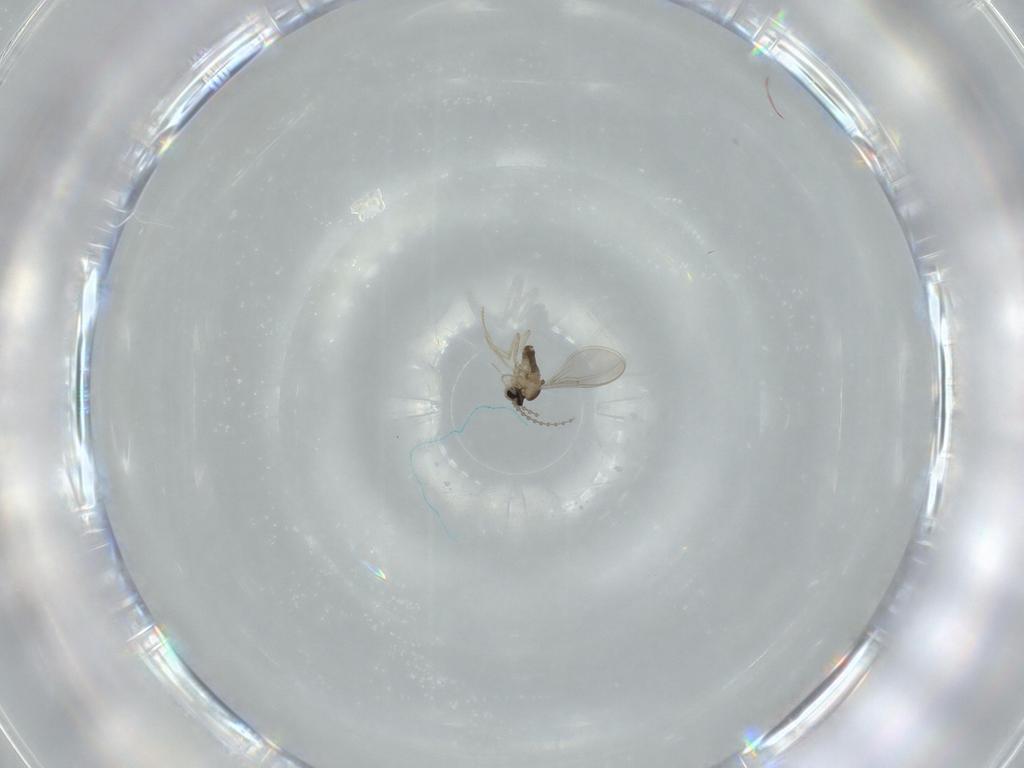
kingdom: Animalia
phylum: Arthropoda
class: Insecta
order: Diptera
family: Cecidomyiidae
